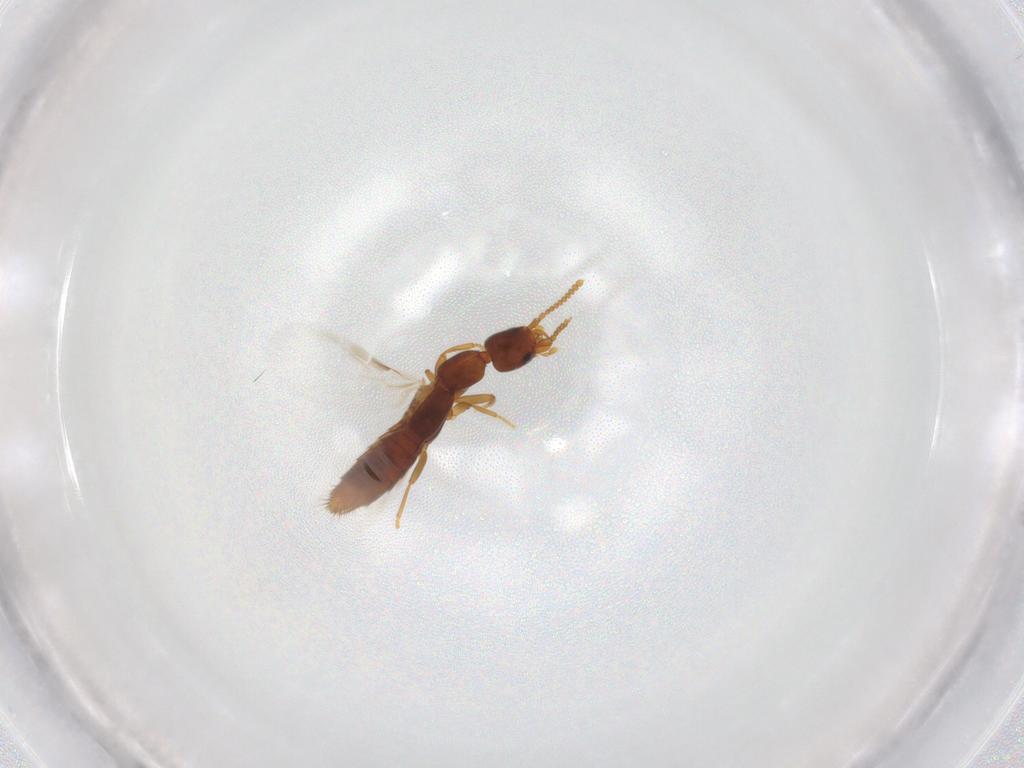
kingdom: Animalia
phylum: Arthropoda
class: Insecta
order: Coleoptera
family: Staphylinidae
